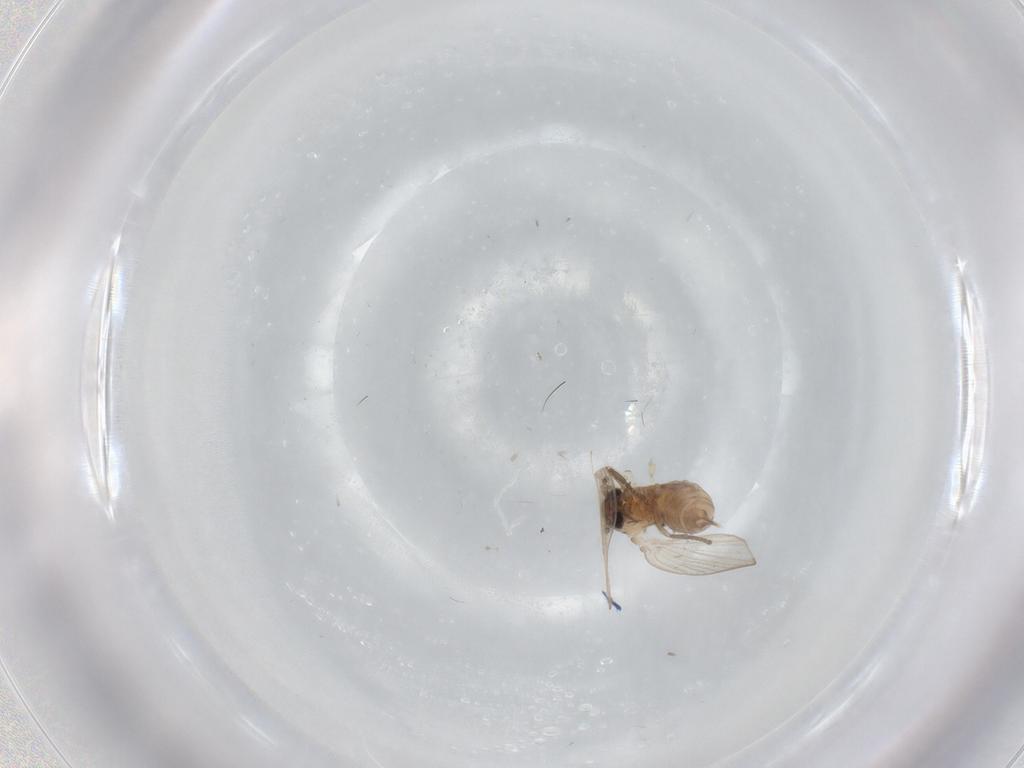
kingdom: Animalia
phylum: Arthropoda
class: Insecta
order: Diptera
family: Psychodidae
